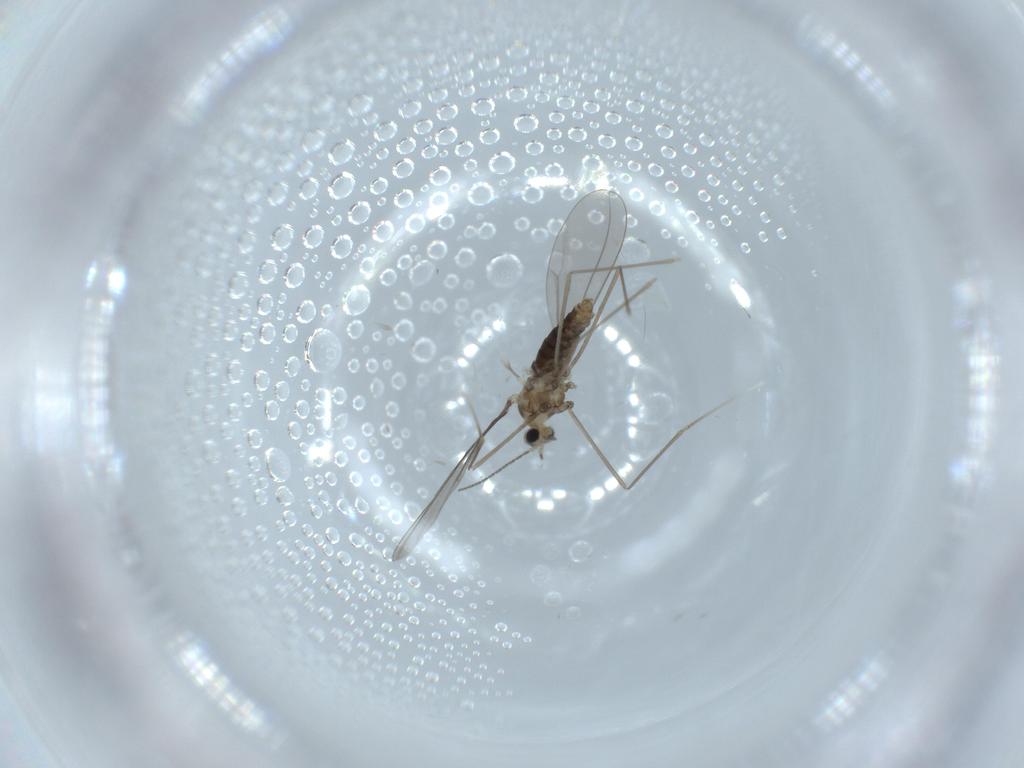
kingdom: Animalia
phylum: Arthropoda
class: Insecta
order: Diptera
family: Cecidomyiidae
